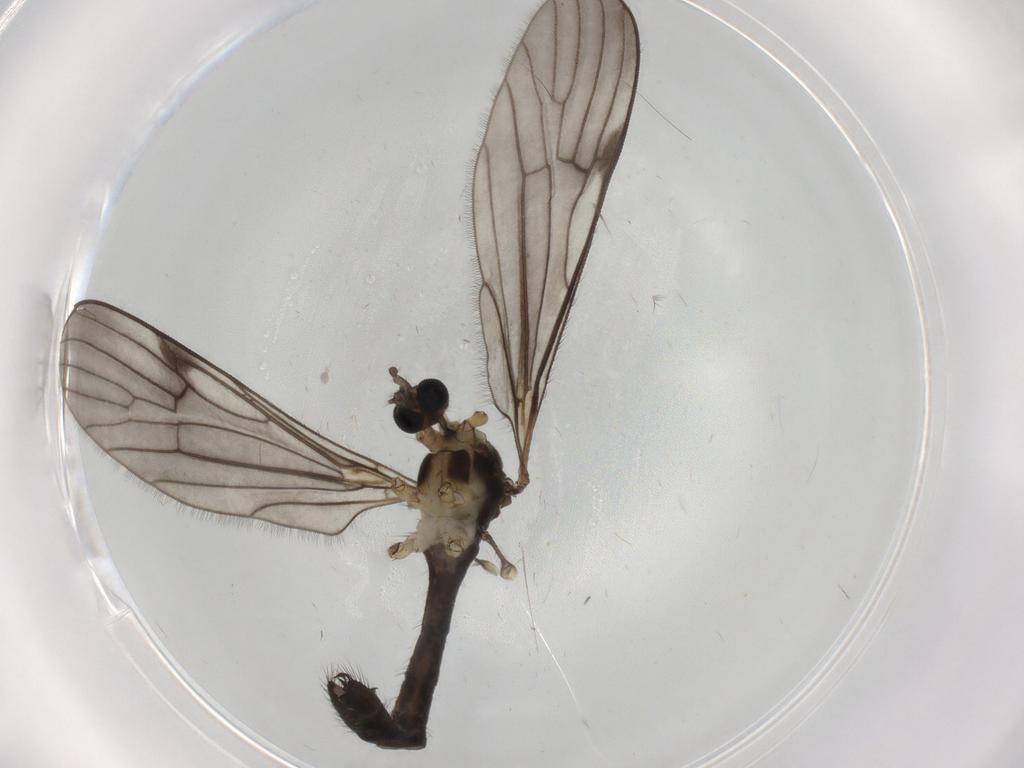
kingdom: Animalia
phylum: Arthropoda
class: Insecta
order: Diptera
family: Limoniidae
